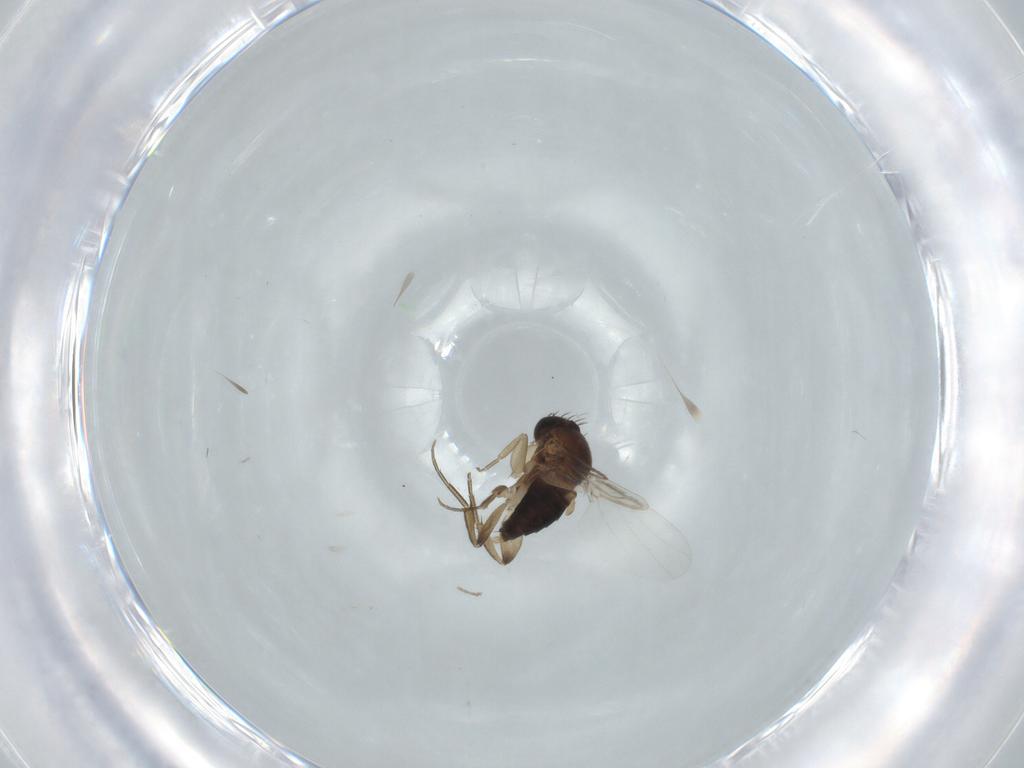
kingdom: Animalia
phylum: Arthropoda
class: Insecta
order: Diptera
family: Phoridae
